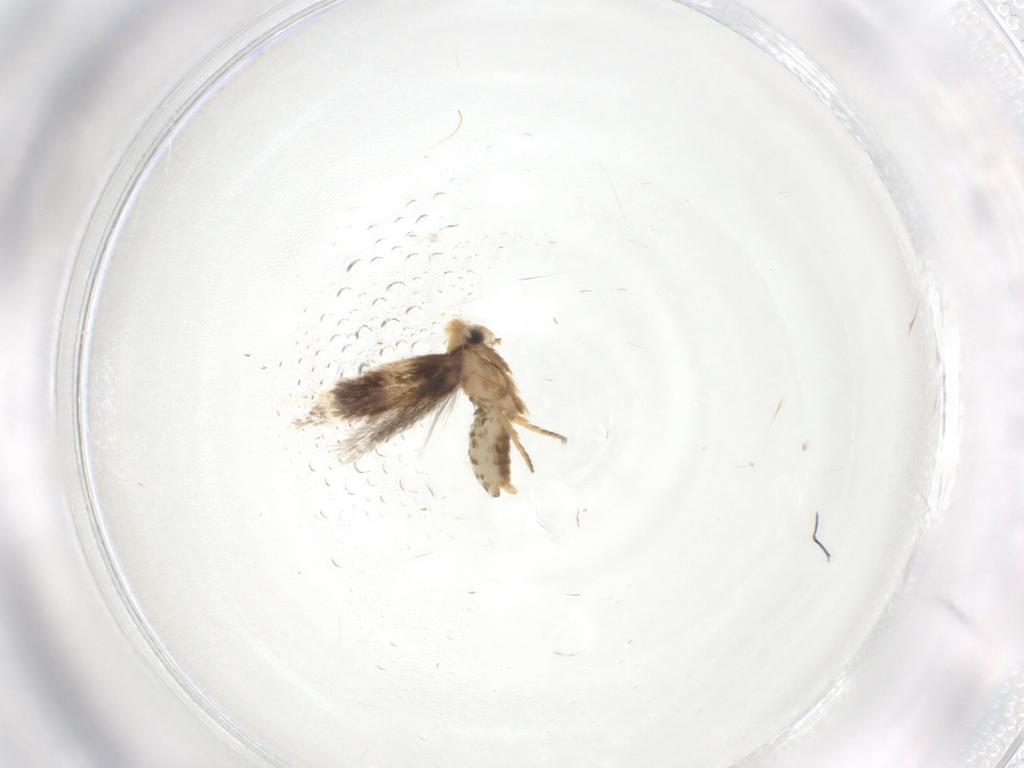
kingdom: Animalia
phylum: Arthropoda
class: Insecta
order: Lepidoptera
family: Nepticulidae
